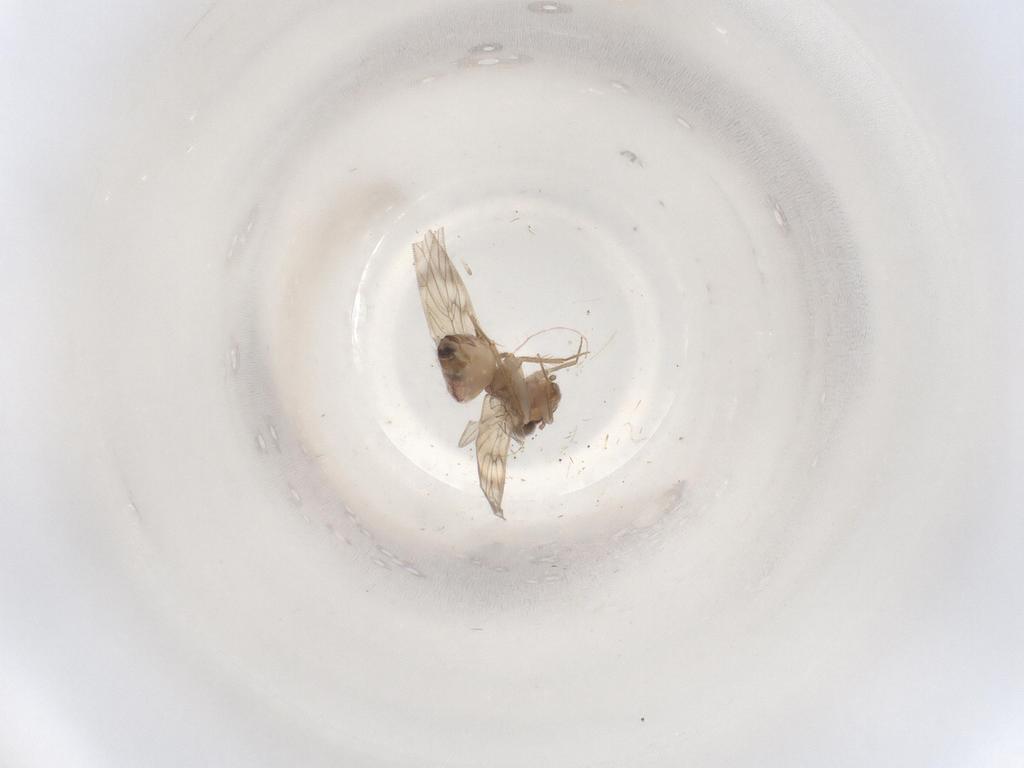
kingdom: Animalia
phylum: Arthropoda
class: Insecta
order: Psocodea
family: Lepidopsocidae
